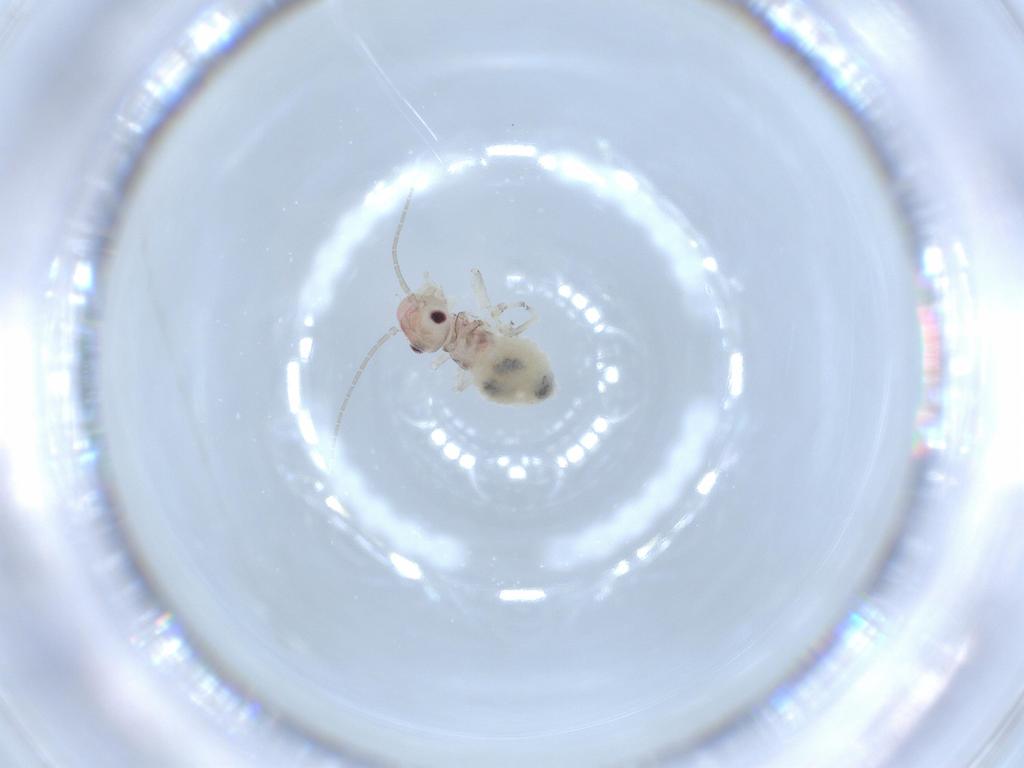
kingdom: Animalia
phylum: Arthropoda
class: Insecta
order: Psocodea
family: Amphipsocidae
